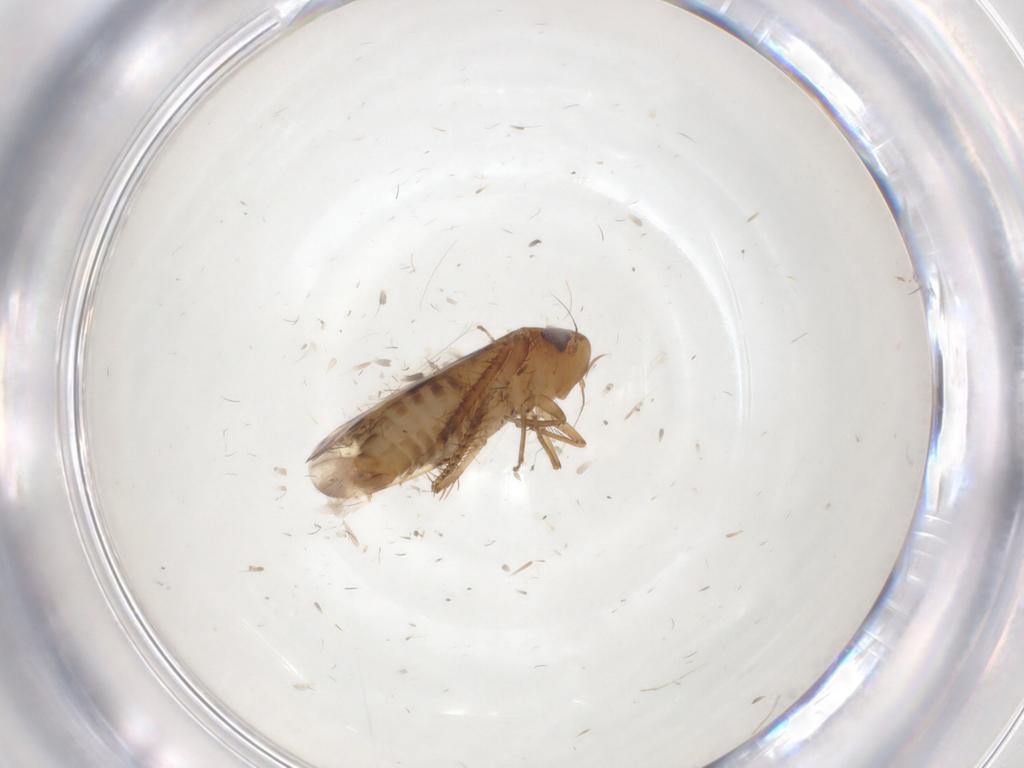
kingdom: Animalia
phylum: Arthropoda
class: Insecta
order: Hemiptera
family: Cicadellidae
